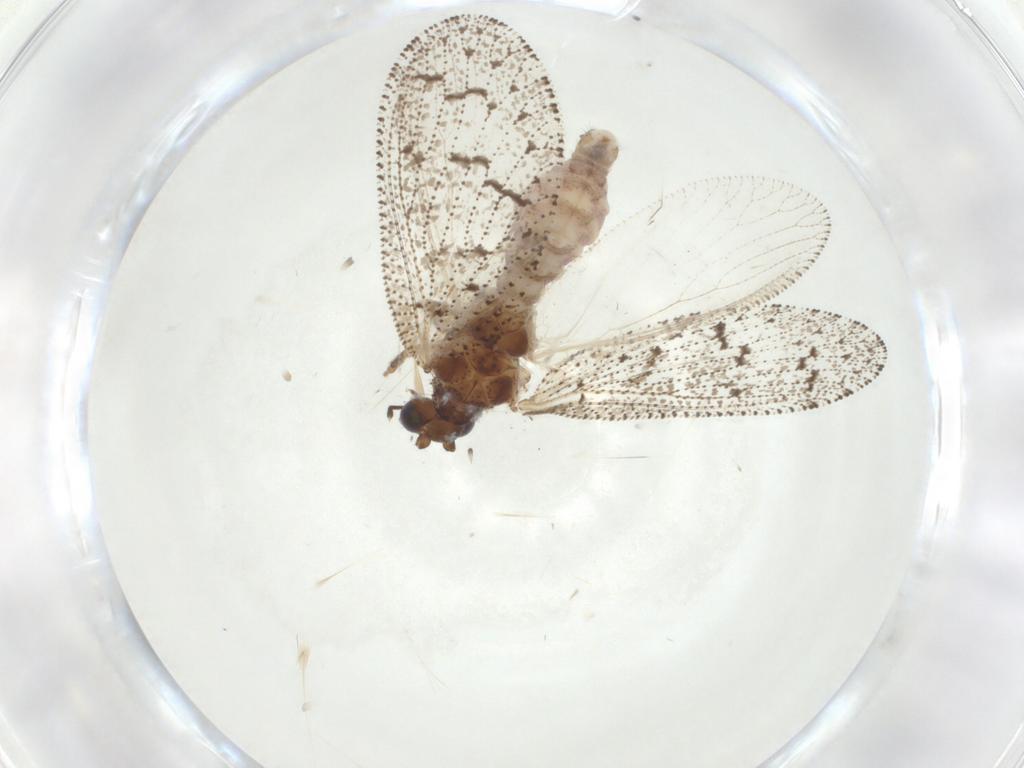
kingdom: Animalia
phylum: Arthropoda
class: Insecta
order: Neuroptera
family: Hemerobiidae
